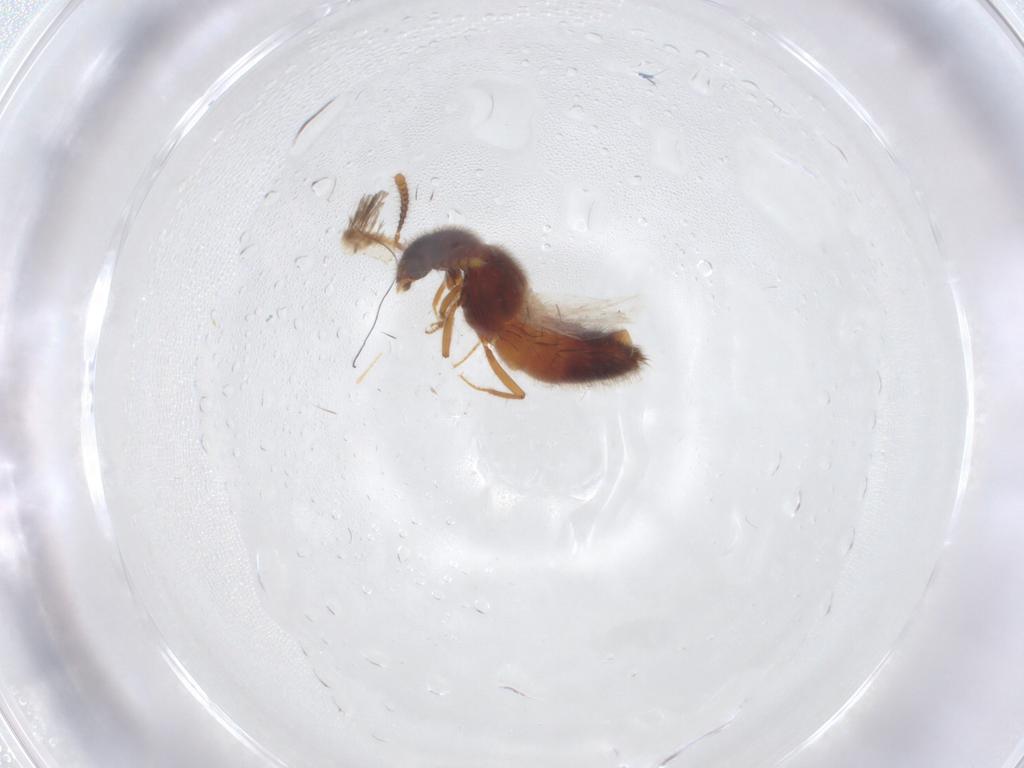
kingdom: Animalia
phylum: Arthropoda
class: Insecta
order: Coleoptera
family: Staphylinidae
